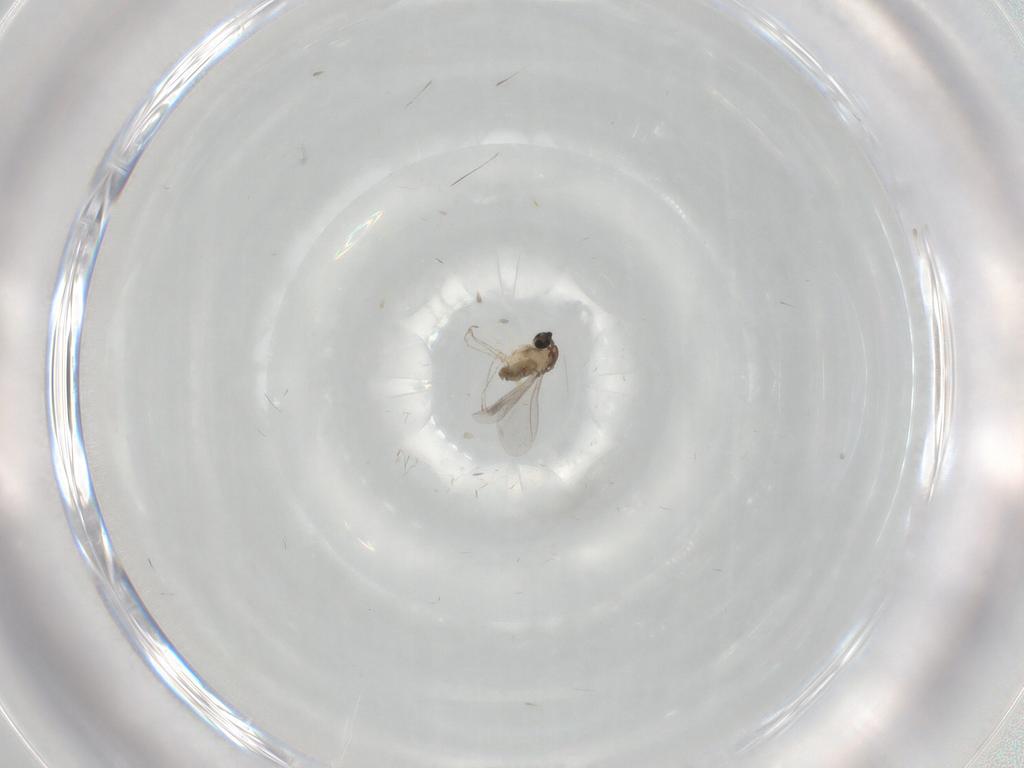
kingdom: Animalia
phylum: Arthropoda
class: Insecta
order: Diptera
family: Cecidomyiidae
